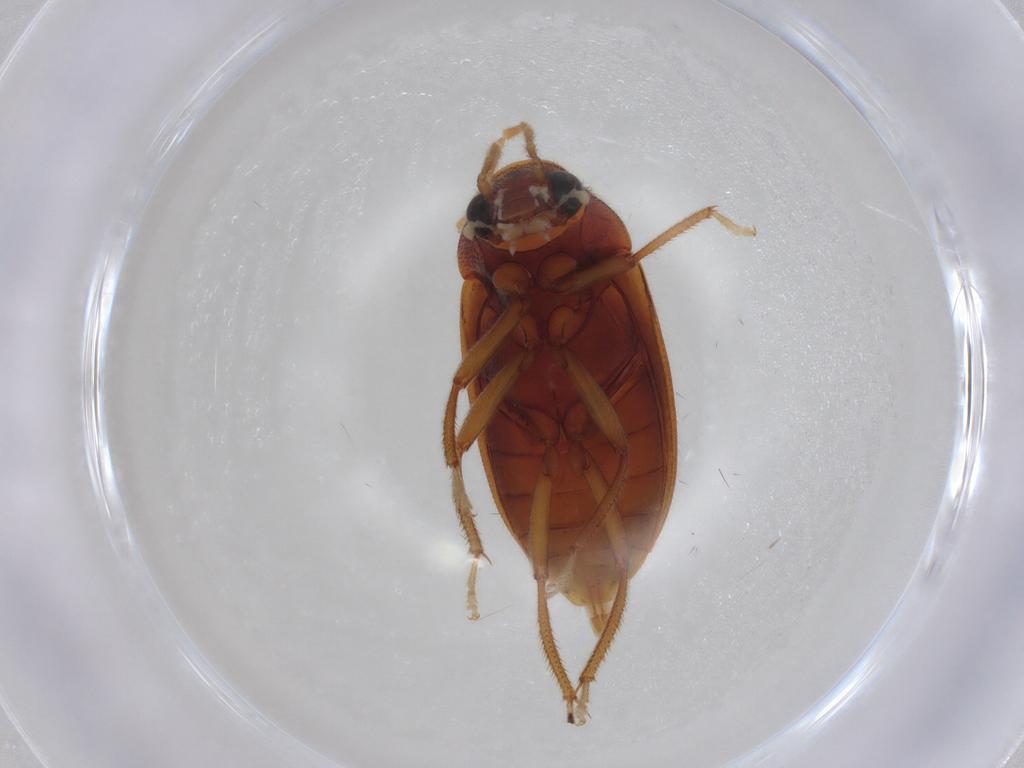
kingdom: Animalia
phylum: Arthropoda
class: Insecta
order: Coleoptera
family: Ptilodactylidae
